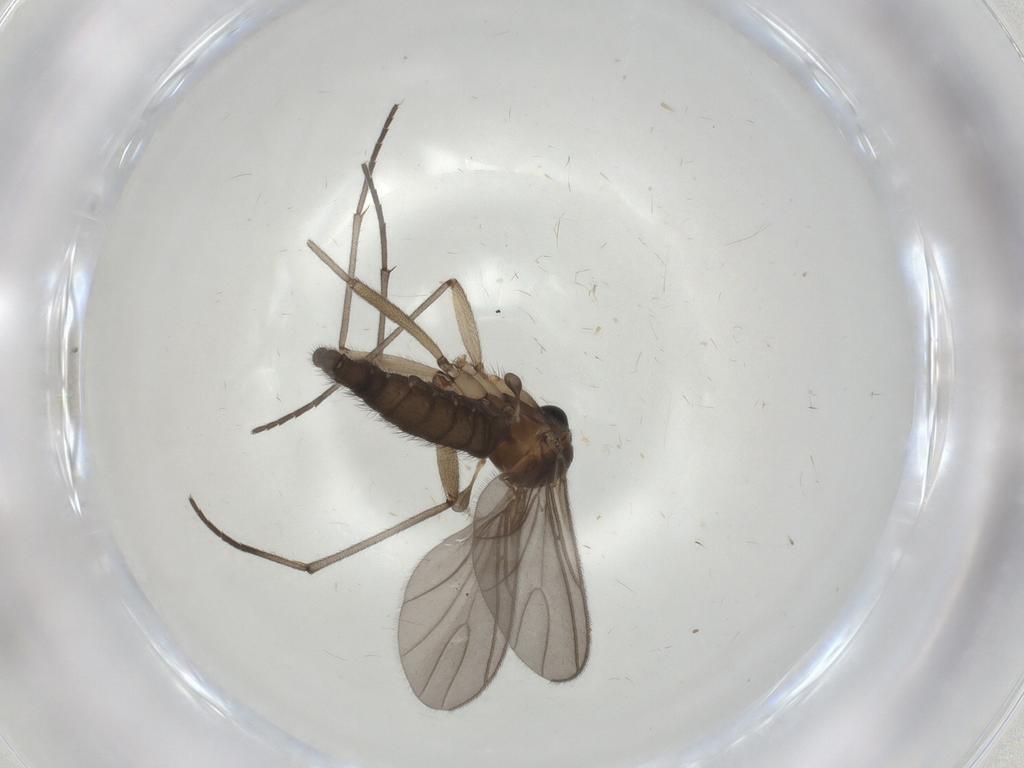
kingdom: Animalia
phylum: Arthropoda
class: Insecta
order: Diptera
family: Sciaridae
